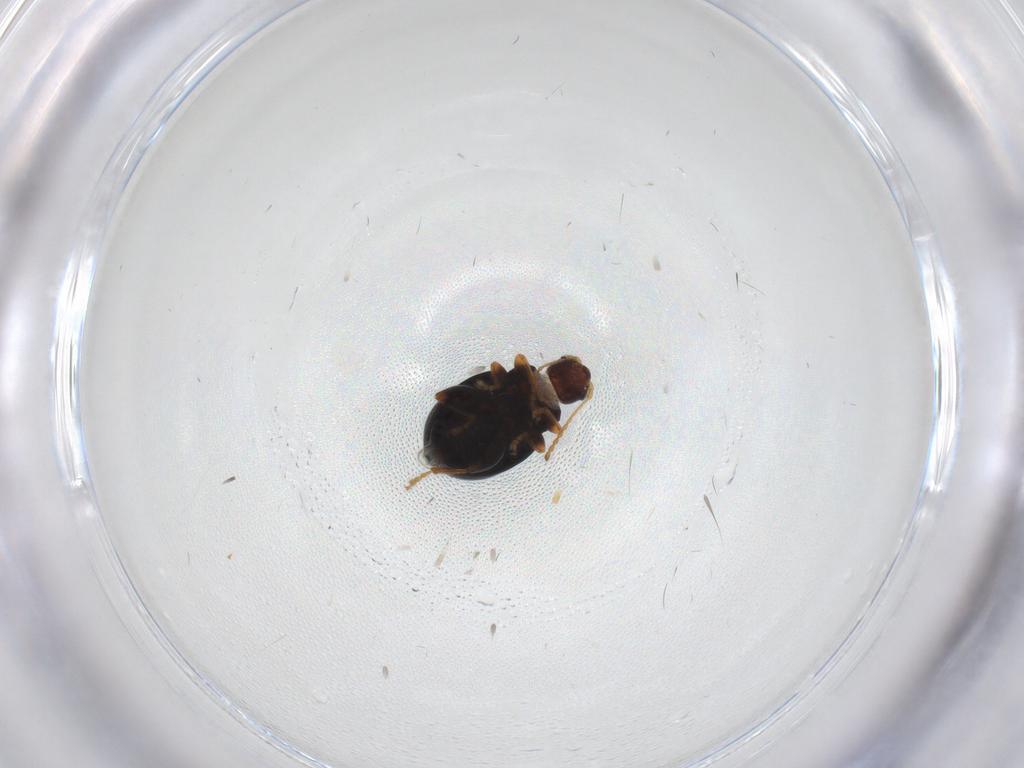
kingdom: Animalia
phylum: Arthropoda
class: Insecta
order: Coleoptera
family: Chrysomelidae
